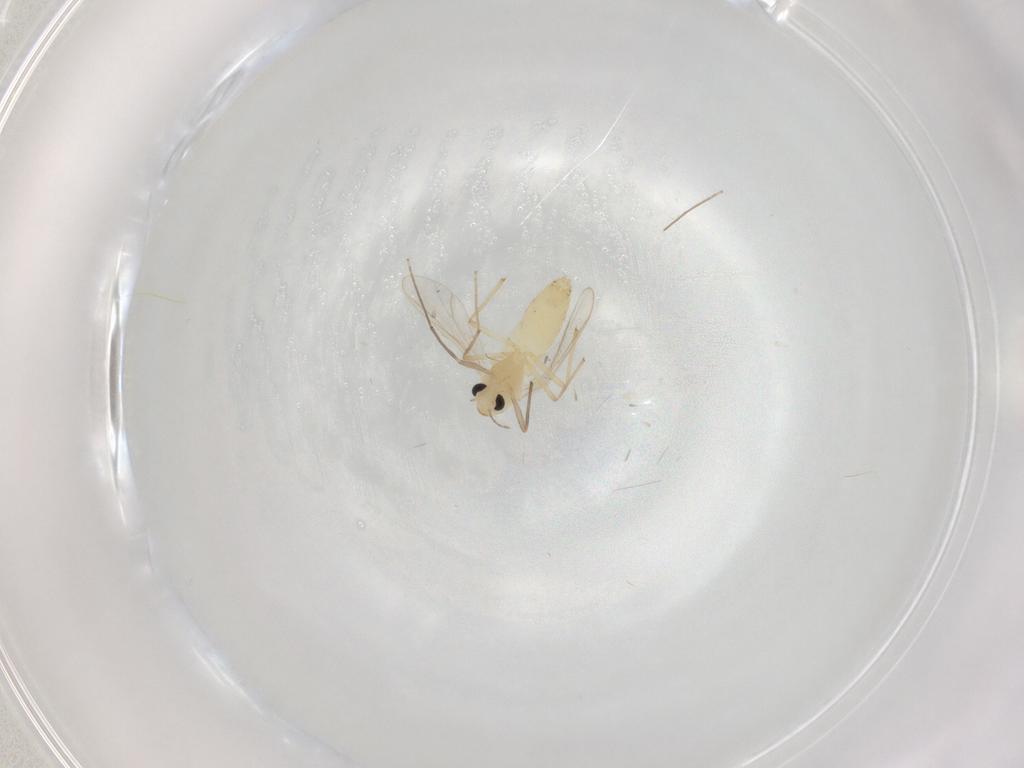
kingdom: Animalia
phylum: Arthropoda
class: Insecta
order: Diptera
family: Chironomidae
